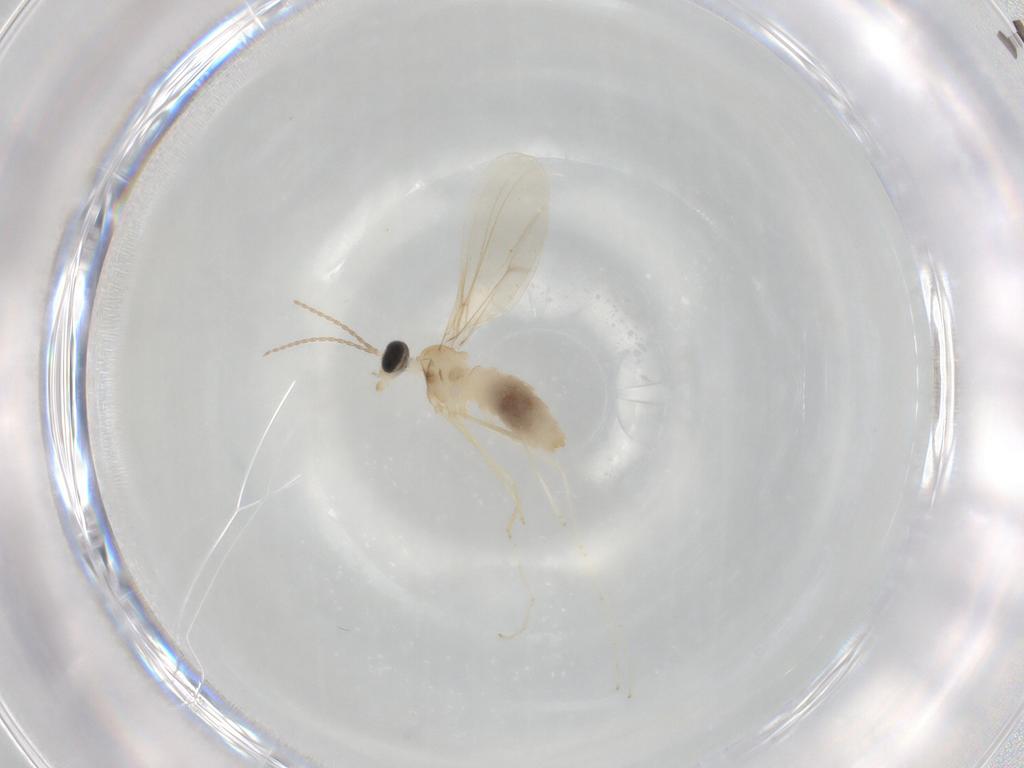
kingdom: Animalia
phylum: Arthropoda
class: Insecta
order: Diptera
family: Cecidomyiidae
